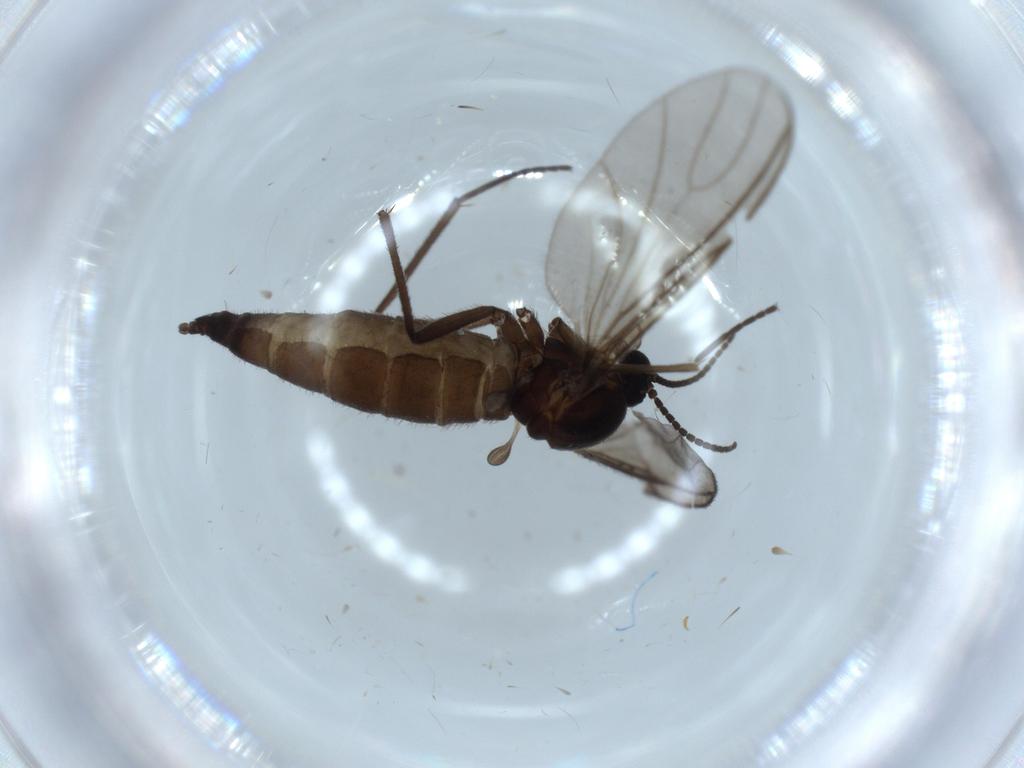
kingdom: Animalia
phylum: Arthropoda
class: Insecta
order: Diptera
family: Sciaridae
